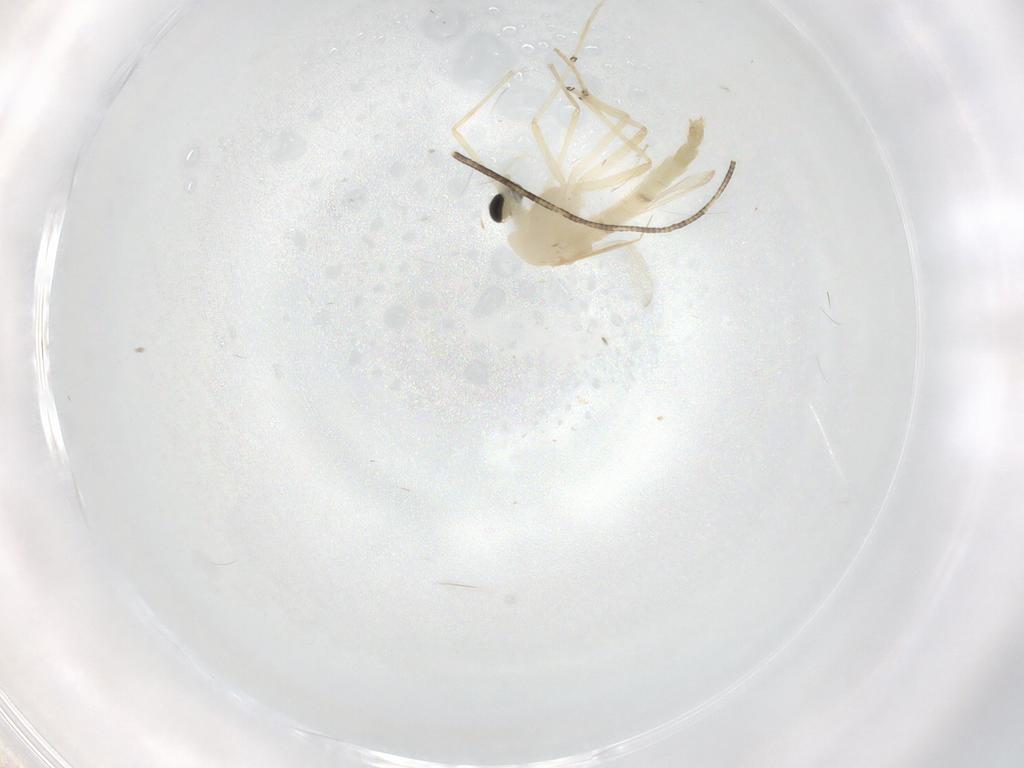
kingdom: Animalia
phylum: Arthropoda
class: Insecta
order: Diptera
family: Chironomidae
